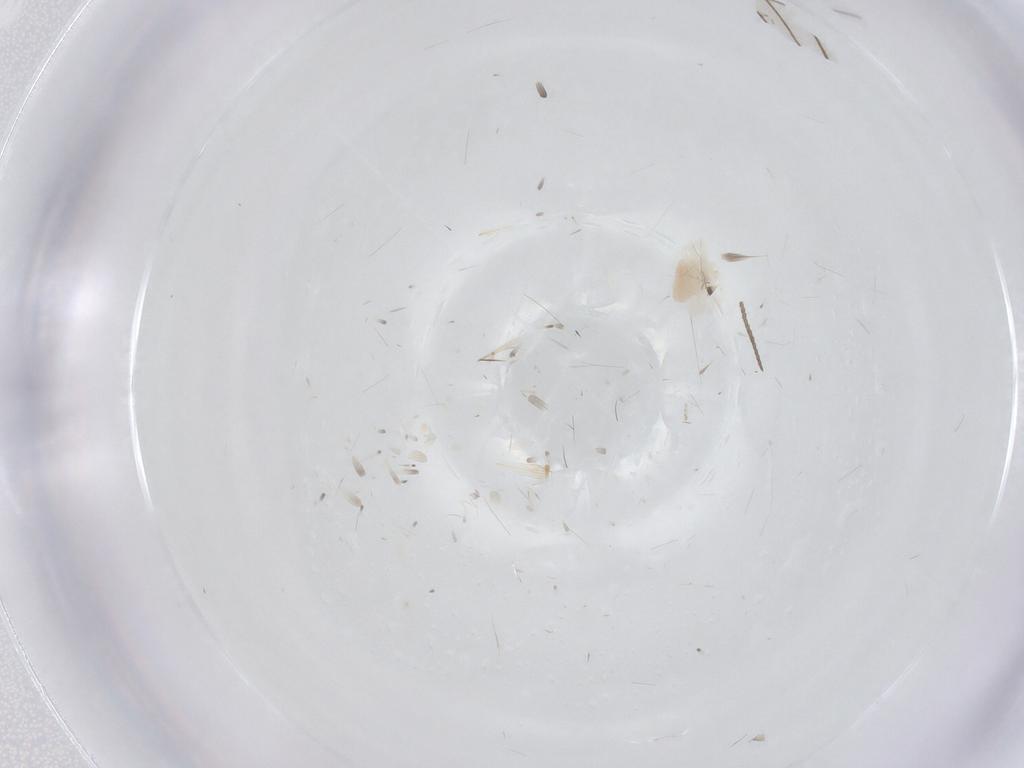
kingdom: Animalia
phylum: Arthropoda
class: Arachnida
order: Trombidiformes
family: Anystidae
